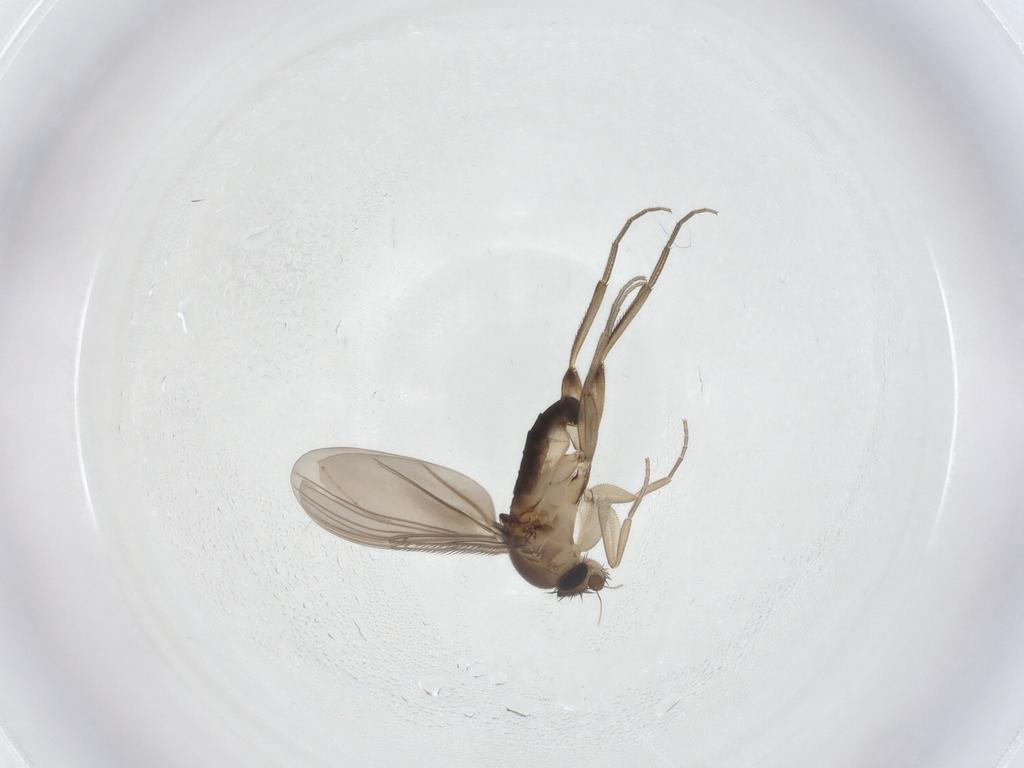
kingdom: Animalia
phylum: Arthropoda
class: Insecta
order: Diptera
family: Phoridae
